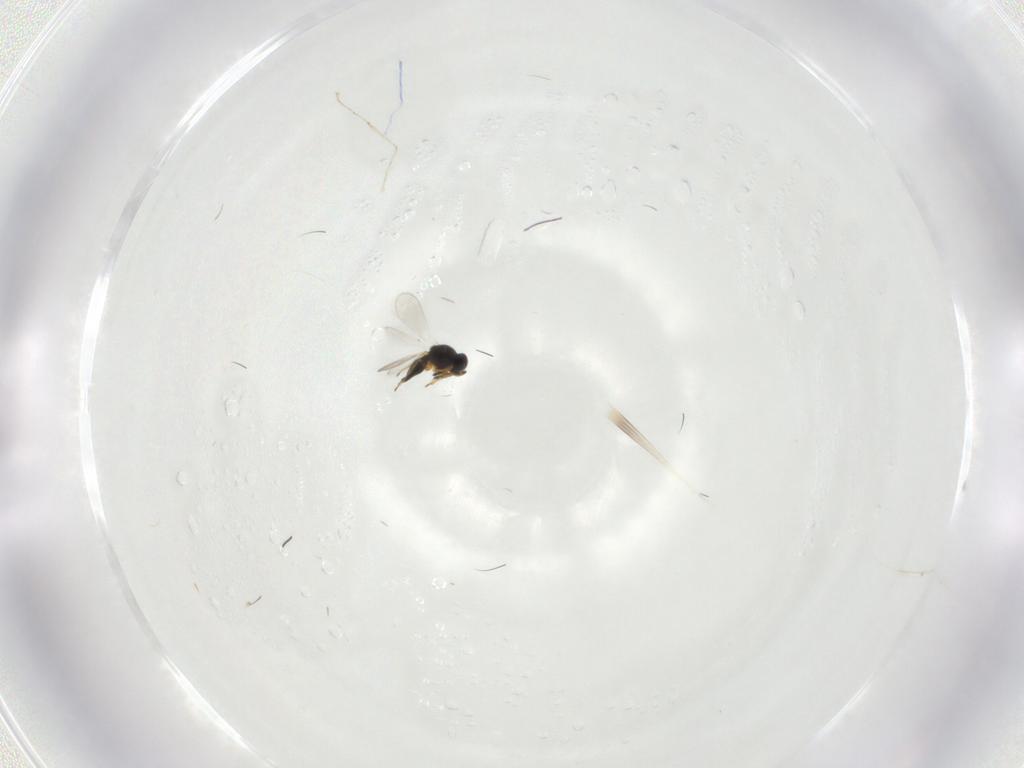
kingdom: Animalia
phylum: Arthropoda
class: Insecta
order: Hymenoptera
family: Platygastridae
